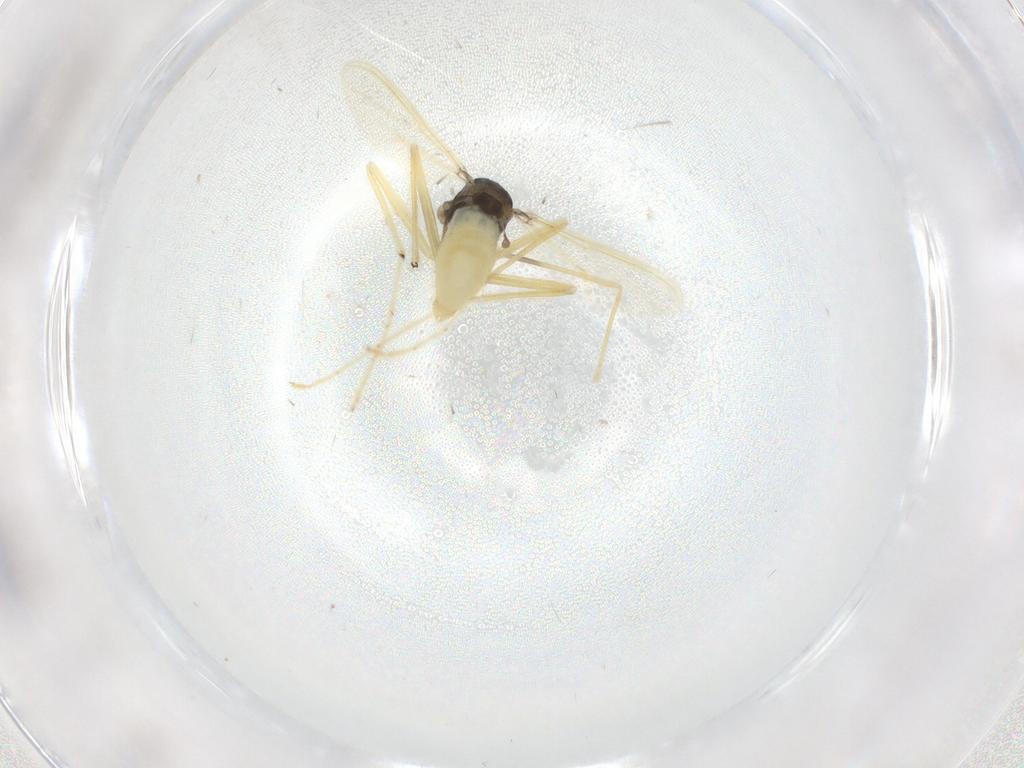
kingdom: Animalia
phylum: Arthropoda
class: Insecta
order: Diptera
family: Chironomidae
